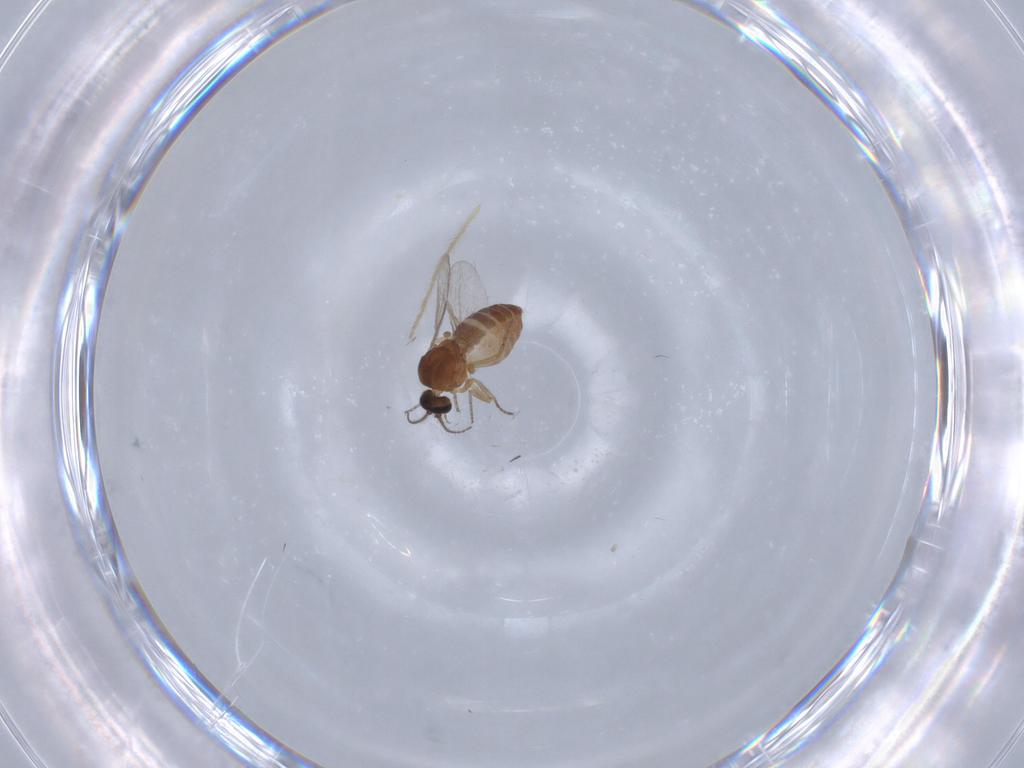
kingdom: Animalia
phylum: Arthropoda
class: Insecta
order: Diptera
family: Ceratopogonidae
